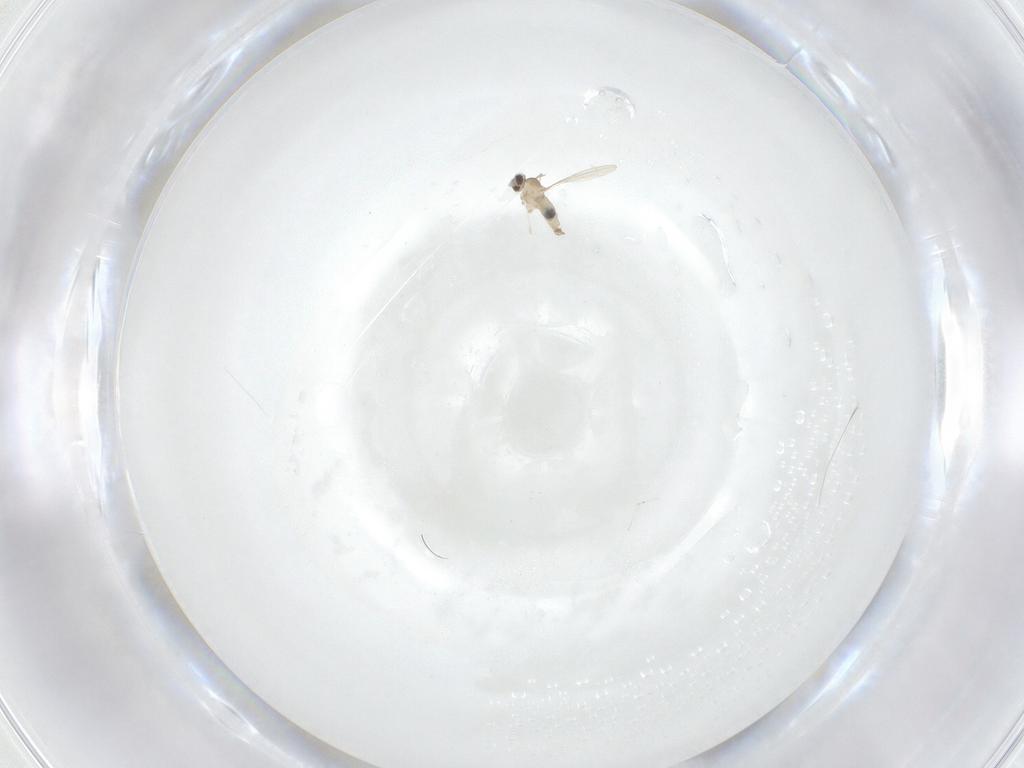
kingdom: Animalia
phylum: Arthropoda
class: Insecta
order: Diptera
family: Cecidomyiidae
